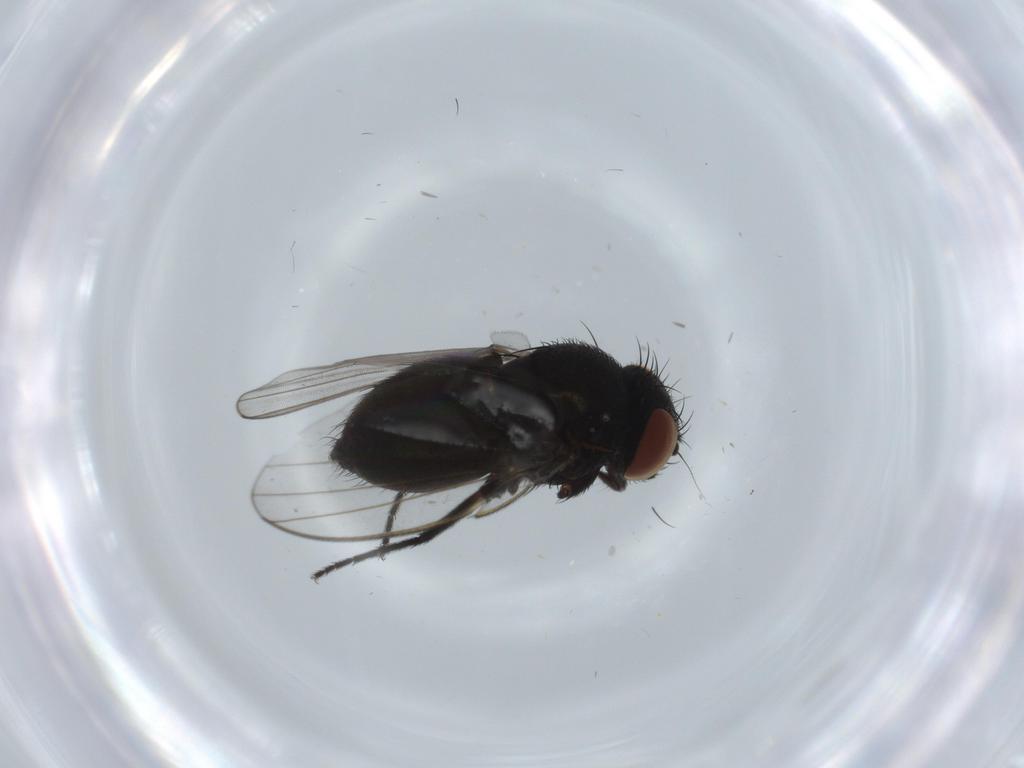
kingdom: Animalia
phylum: Arthropoda
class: Insecta
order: Diptera
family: Milichiidae
